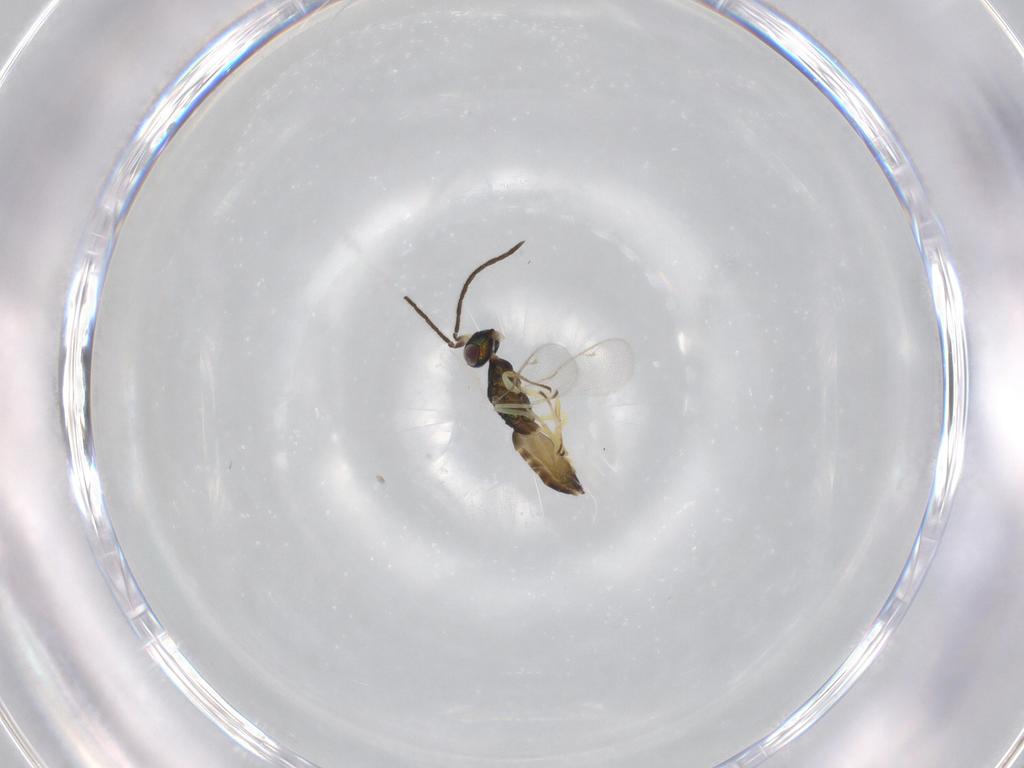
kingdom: Animalia
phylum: Arthropoda
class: Insecta
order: Hymenoptera
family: Pteromalidae
